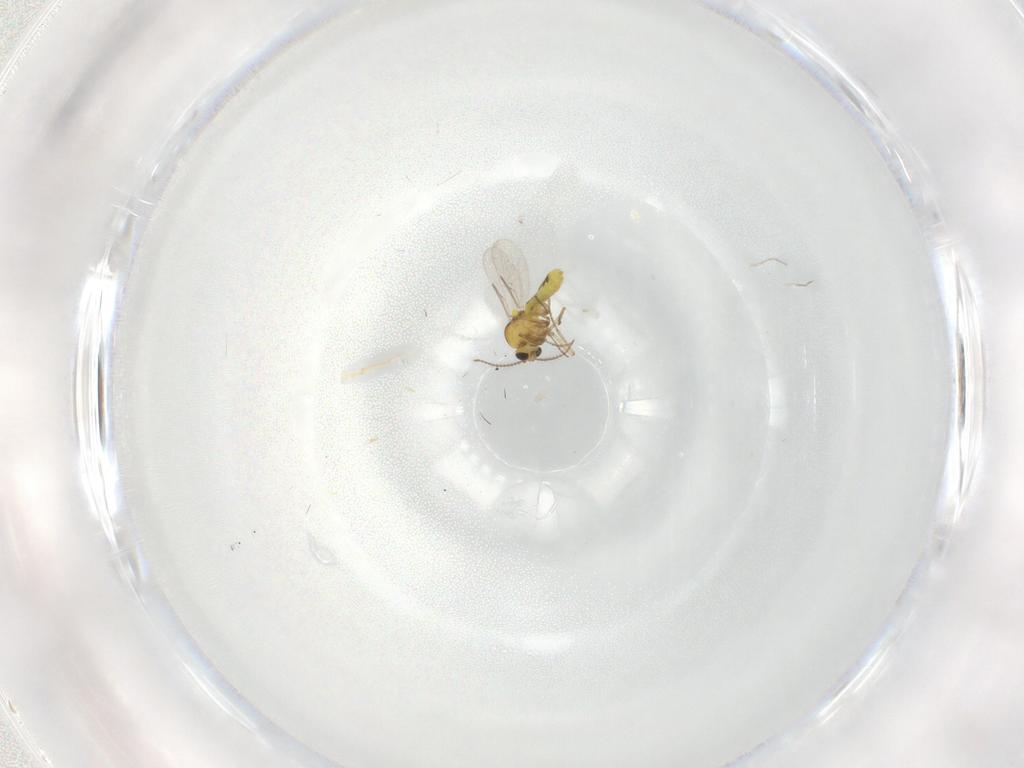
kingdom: Animalia
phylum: Arthropoda
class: Insecta
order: Diptera
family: Ceratopogonidae
